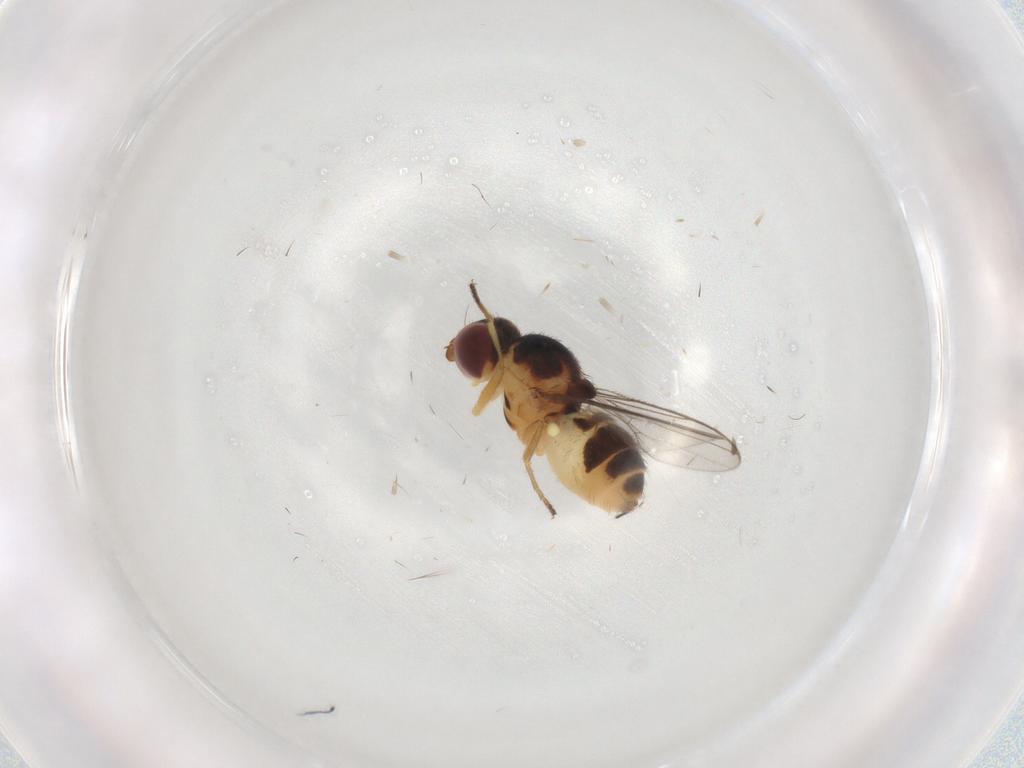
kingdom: Animalia
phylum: Arthropoda
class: Insecta
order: Diptera
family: Chloropidae
